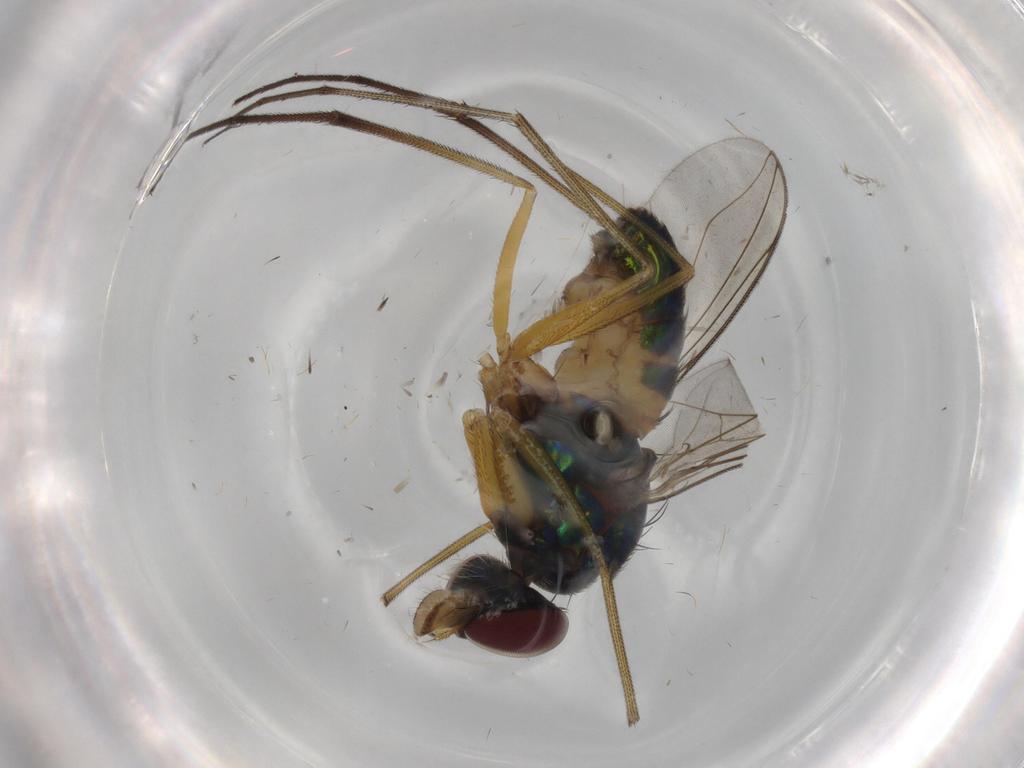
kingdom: Animalia
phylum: Arthropoda
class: Insecta
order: Diptera
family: Dolichopodidae
